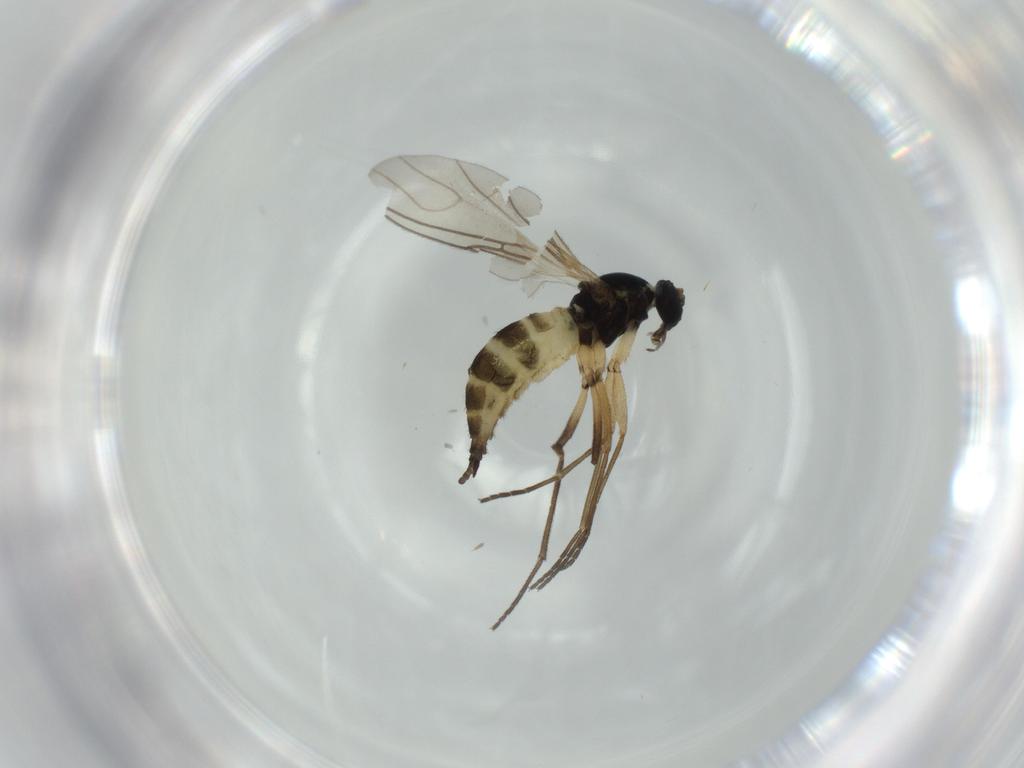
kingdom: Animalia
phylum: Arthropoda
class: Insecta
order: Diptera
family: Sciaridae
